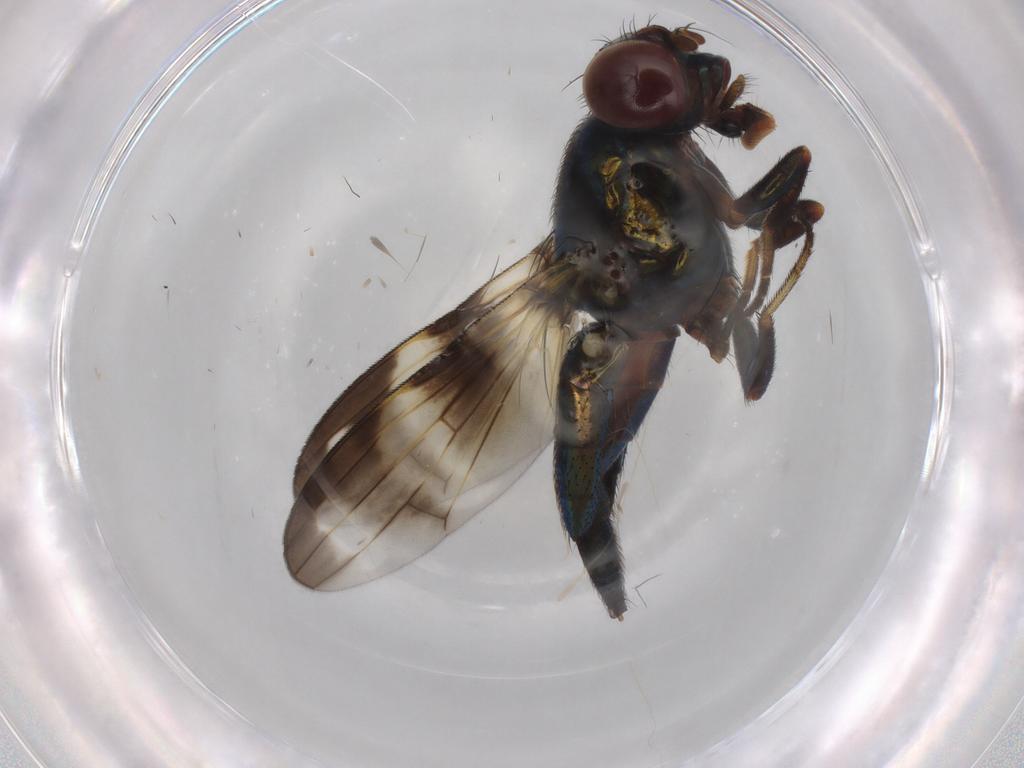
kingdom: Animalia
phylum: Arthropoda
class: Insecta
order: Diptera
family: Ulidiidae
